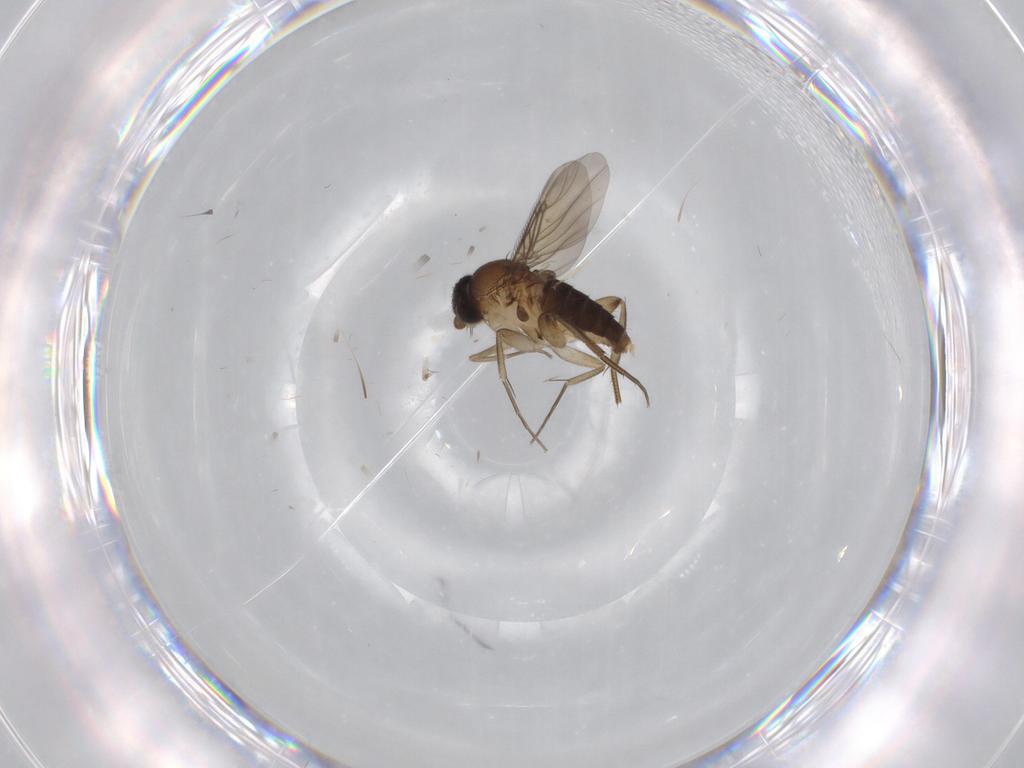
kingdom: Animalia
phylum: Arthropoda
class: Insecta
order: Diptera
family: Phoridae
